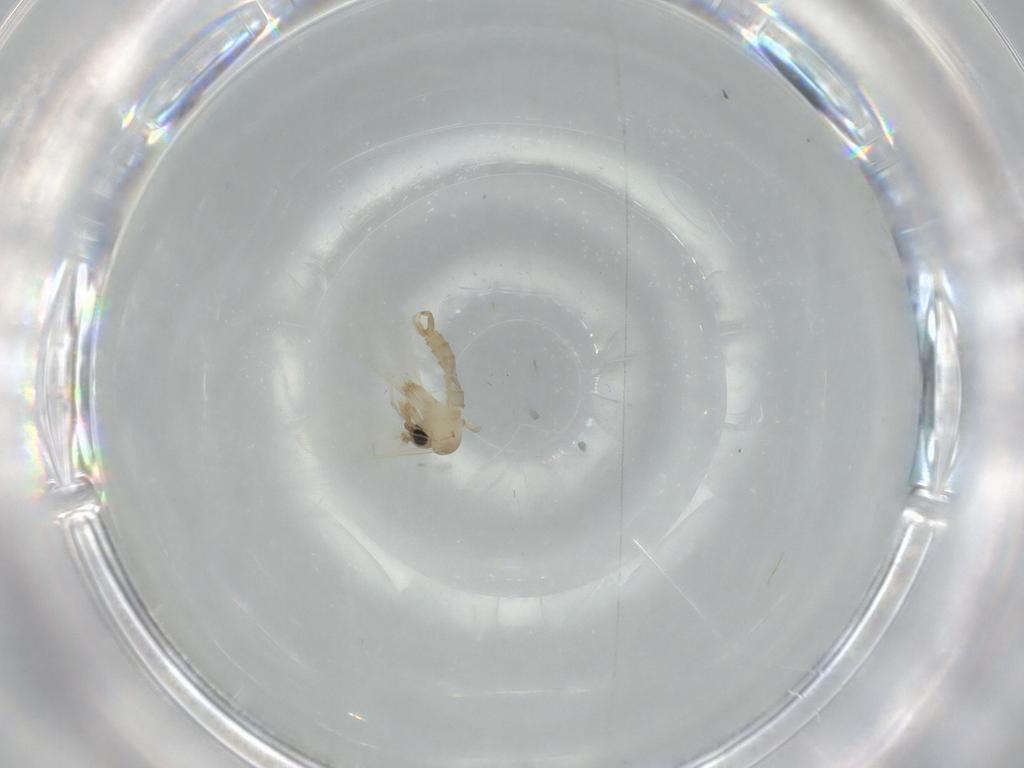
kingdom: Animalia
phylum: Arthropoda
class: Insecta
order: Diptera
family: Psychodidae
